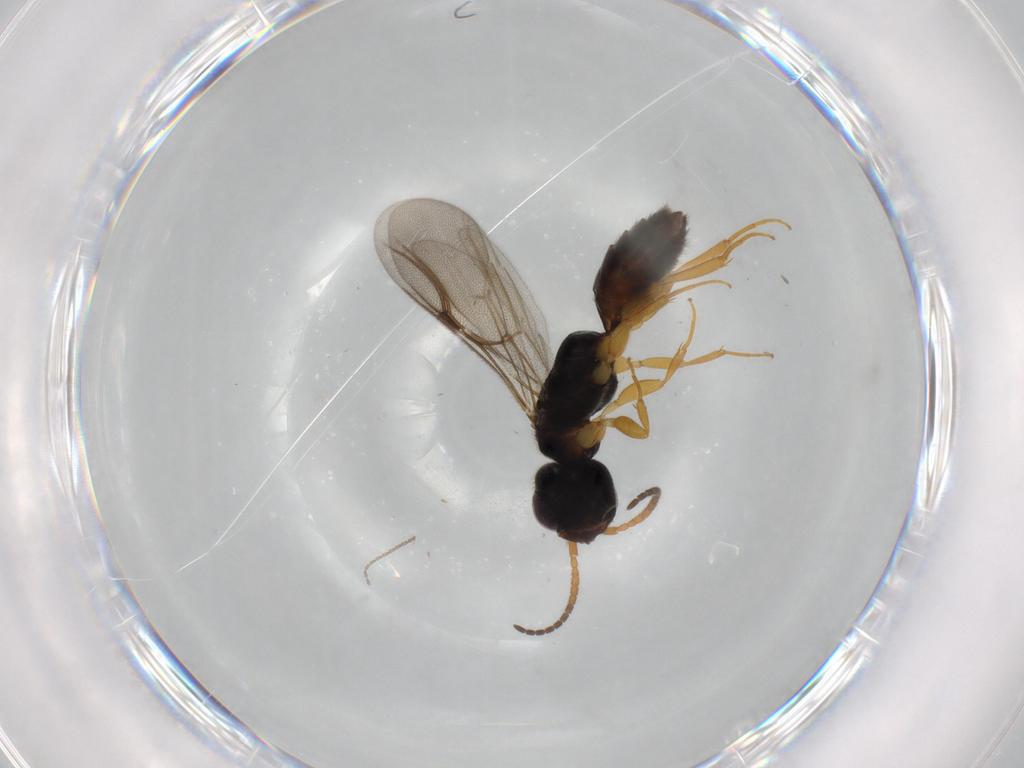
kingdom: Animalia
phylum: Arthropoda
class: Insecta
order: Hymenoptera
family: Bethylidae
